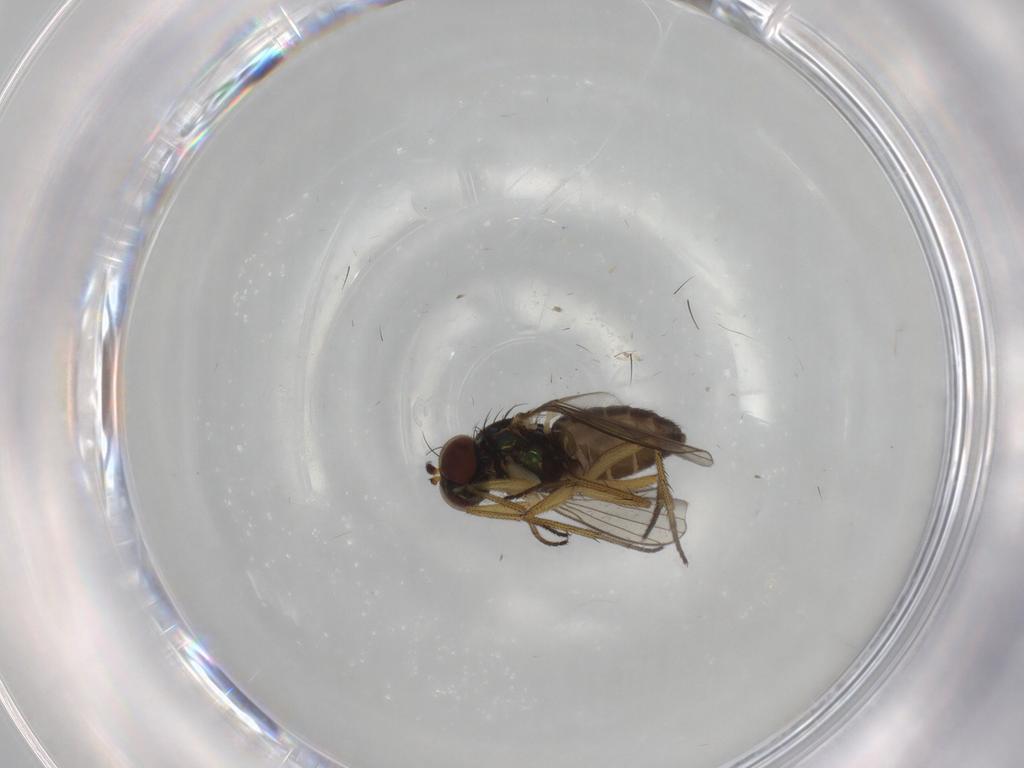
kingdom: Animalia
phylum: Arthropoda
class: Insecta
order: Diptera
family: Dolichopodidae
